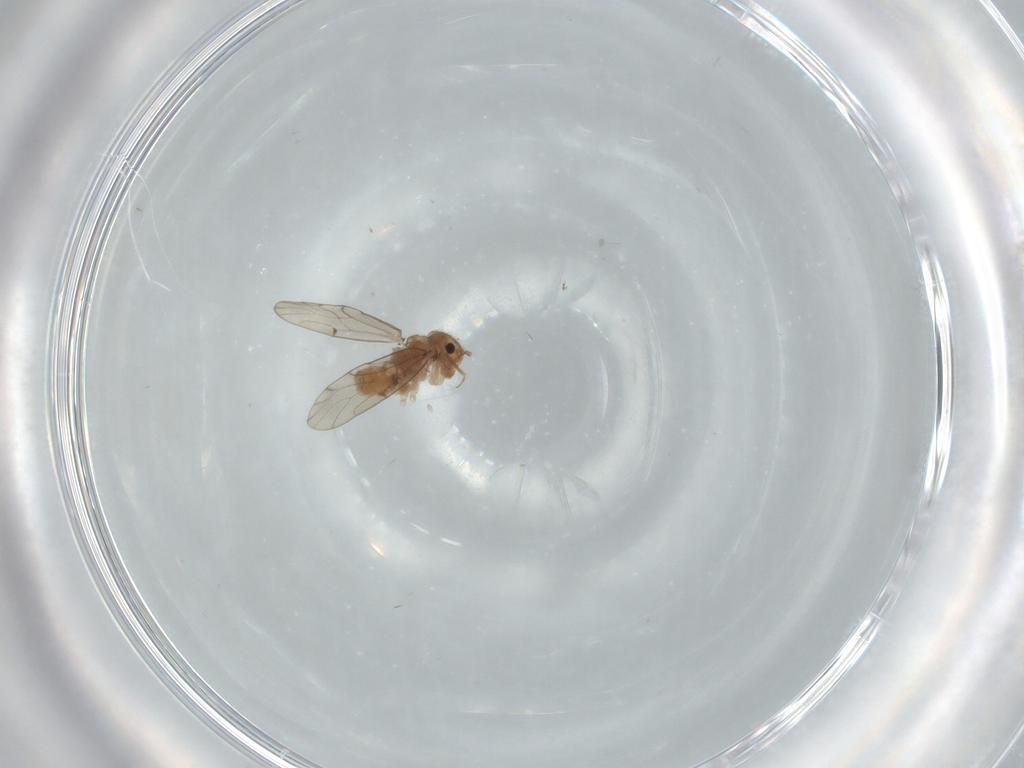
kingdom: Animalia
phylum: Arthropoda
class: Insecta
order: Psocodea
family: Ectopsocidae
